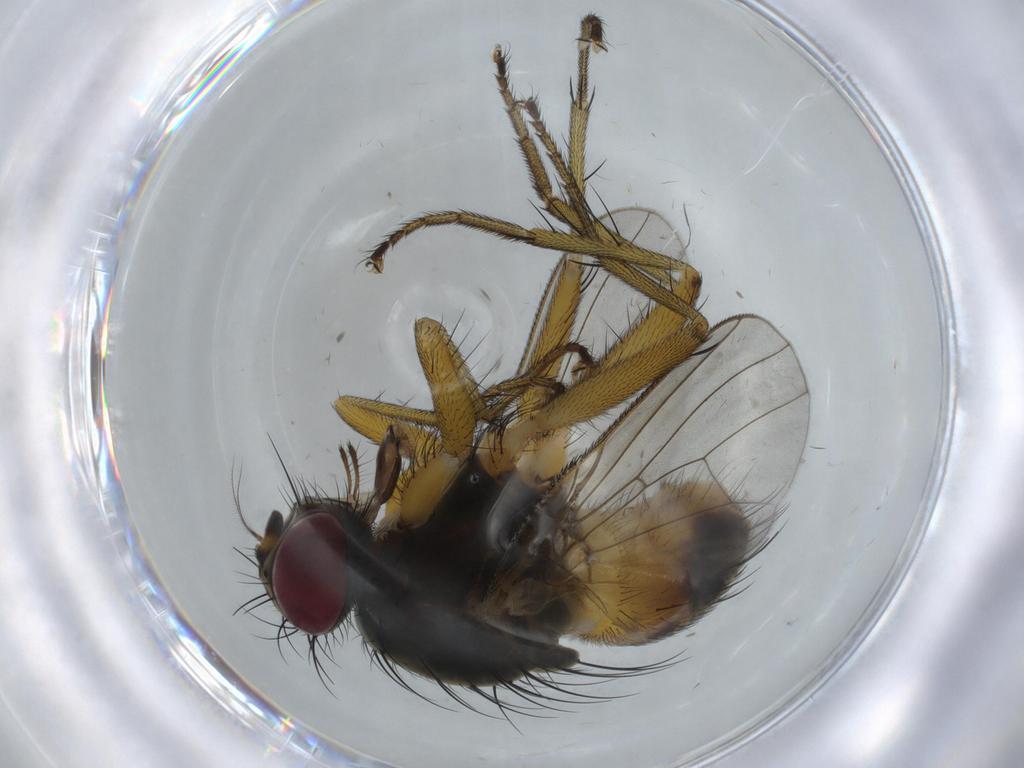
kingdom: Animalia
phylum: Arthropoda
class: Insecta
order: Diptera
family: Muscidae
